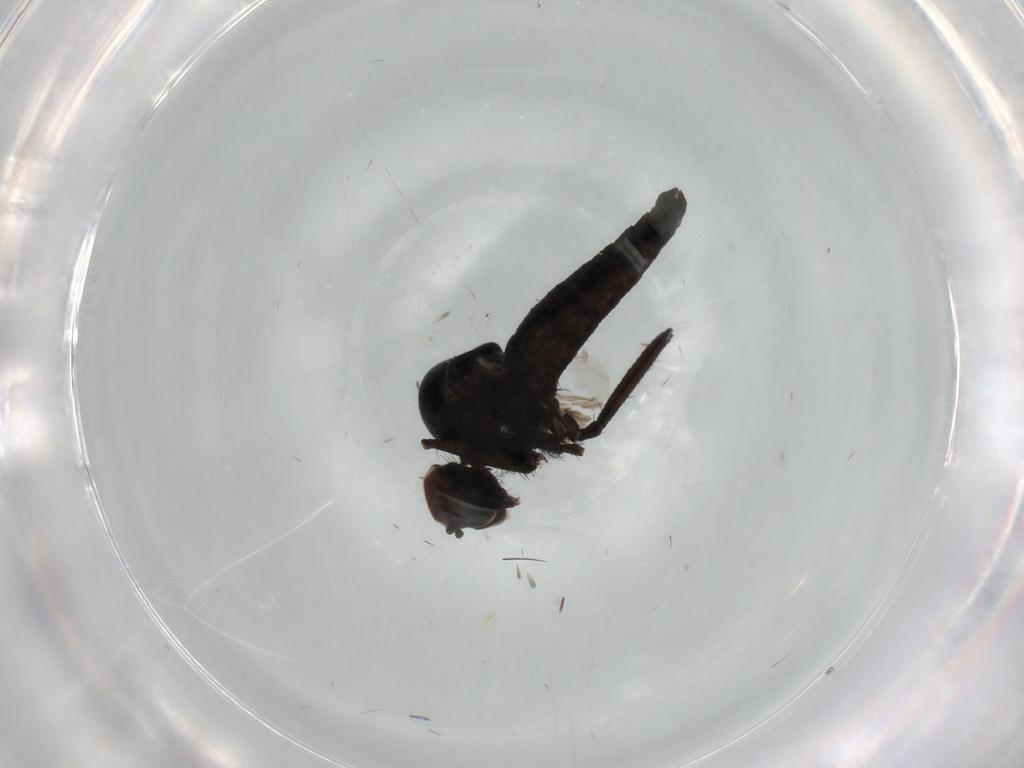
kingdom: Animalia
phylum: Arthropoda
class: Insecta
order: Diptera
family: Hybotidae
